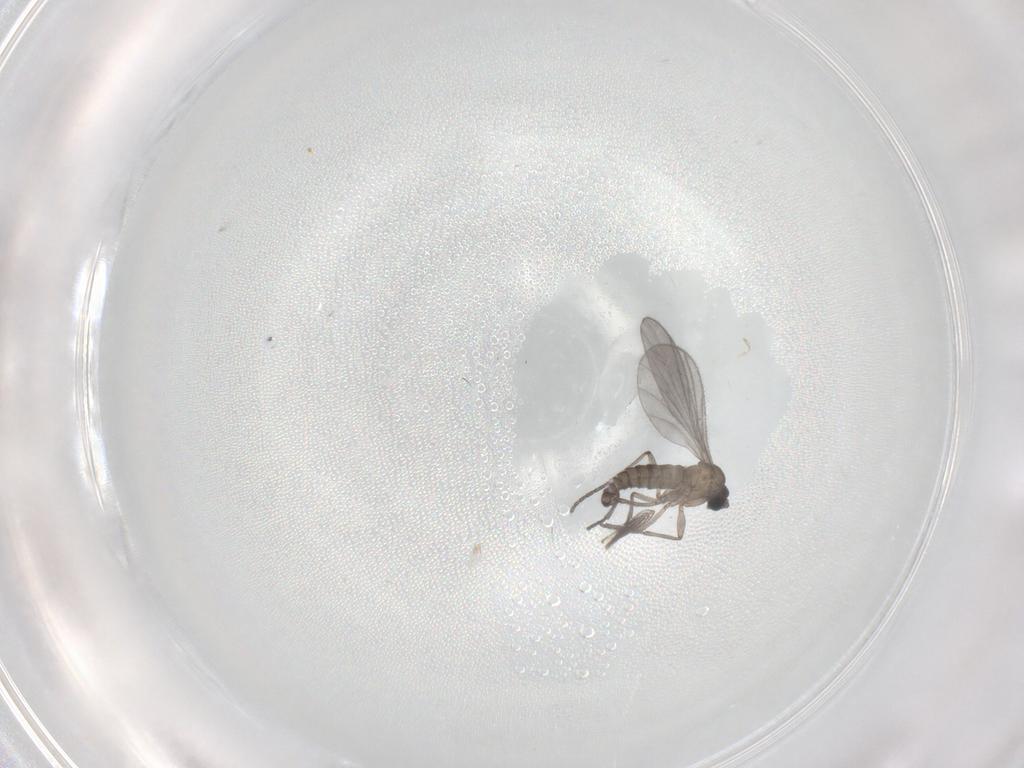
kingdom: Animalia
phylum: Arthropoda
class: Insecta
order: Diptera
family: Sciaridae
